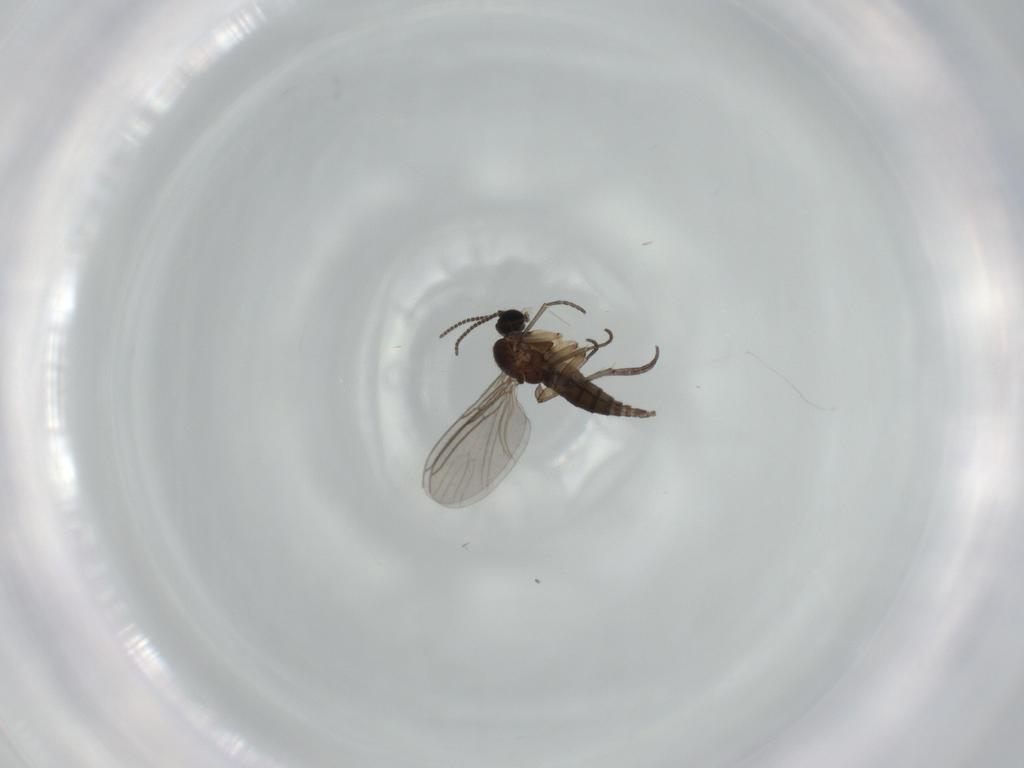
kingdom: Animalia
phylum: Arthropoda
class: Insecta
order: Diptera
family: Sciaridae
